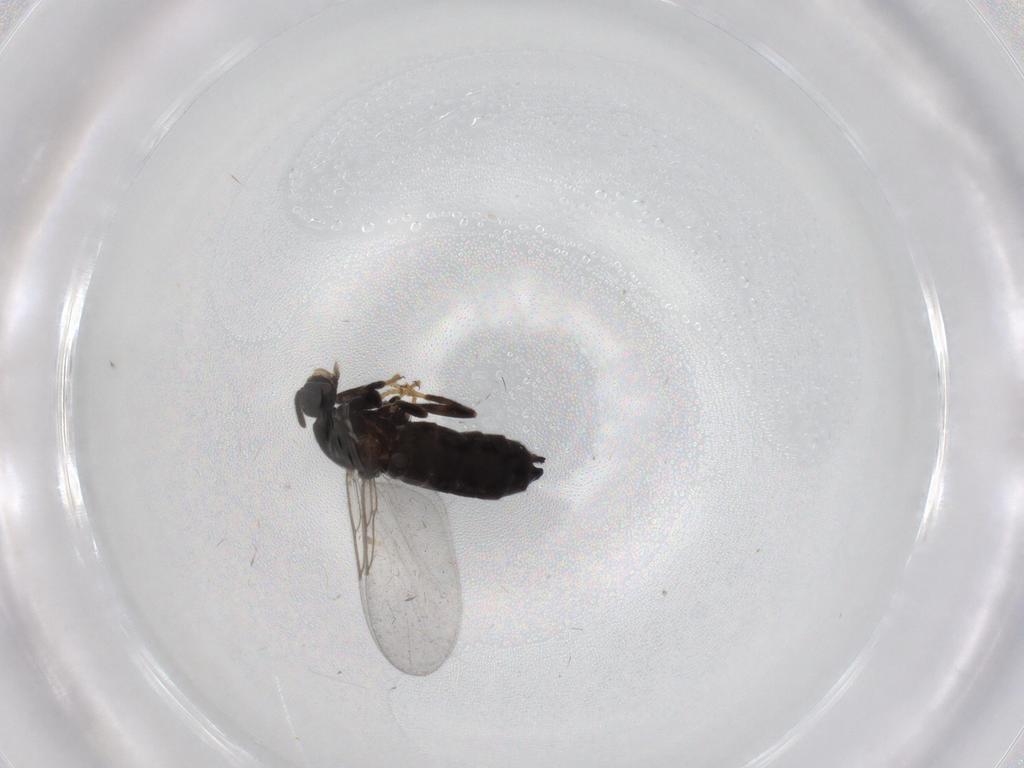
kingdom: Animalia
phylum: Arthropoda
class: Insecta
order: Diptera
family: Scatopsidae
